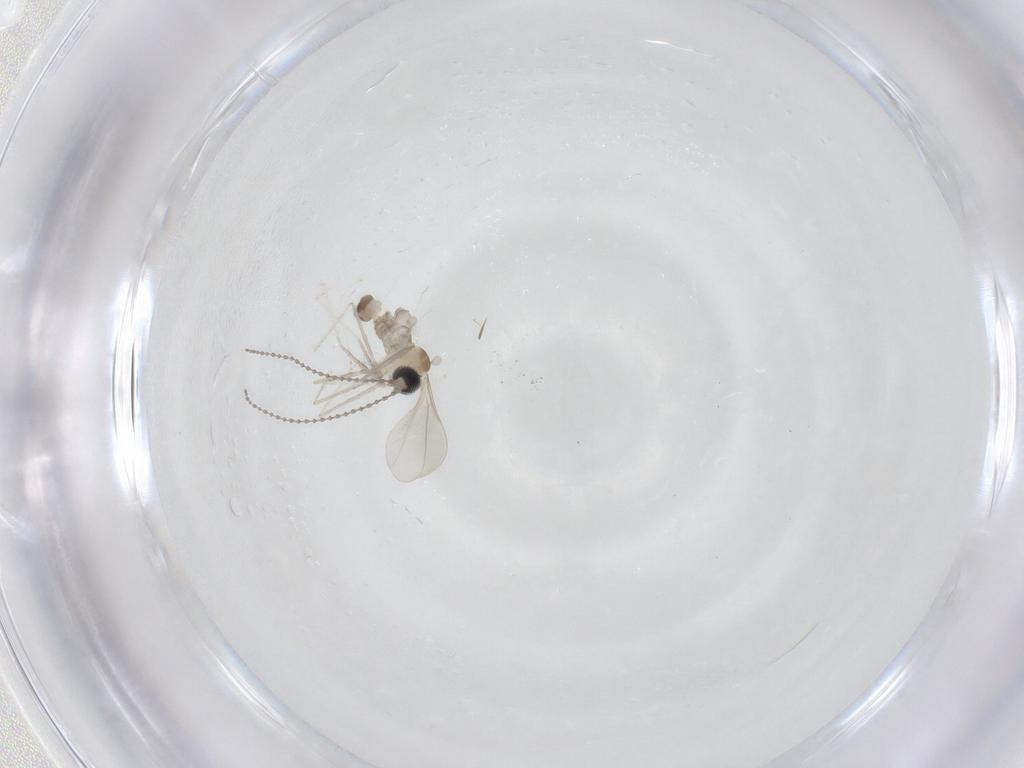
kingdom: Animalia
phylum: Arthropoda
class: Insecta
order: Diptera
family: Cecidomyiidae
